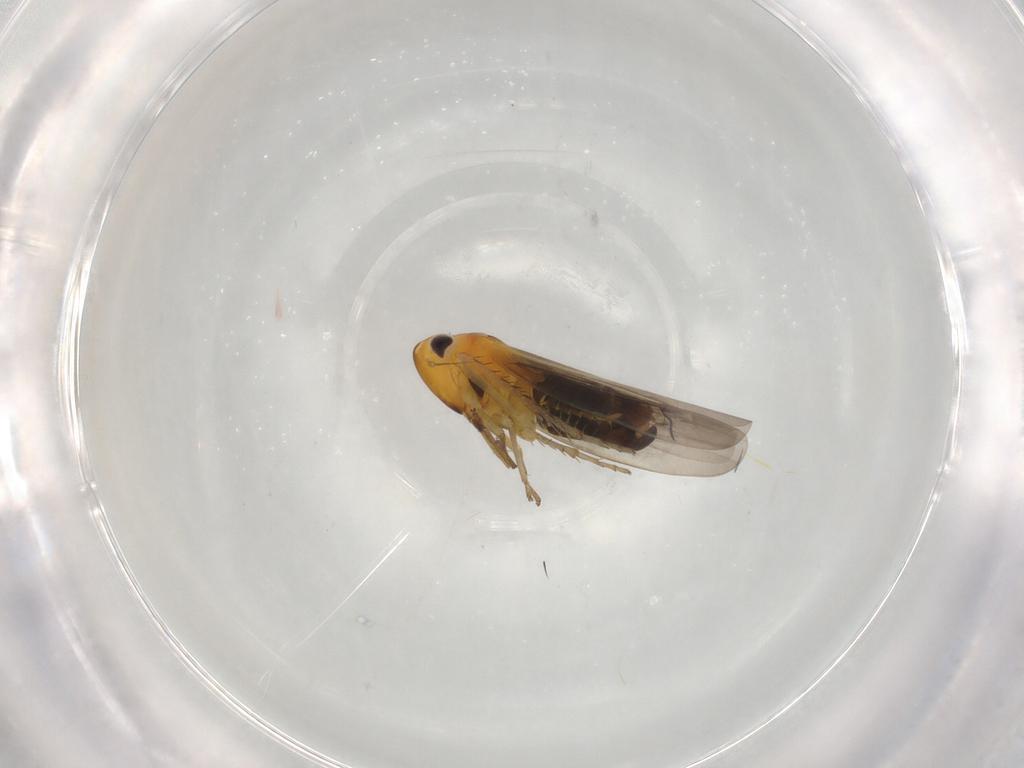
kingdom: Animalia
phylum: Arthropoda
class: Insecta
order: Hemiptera
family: Cicadellidae
